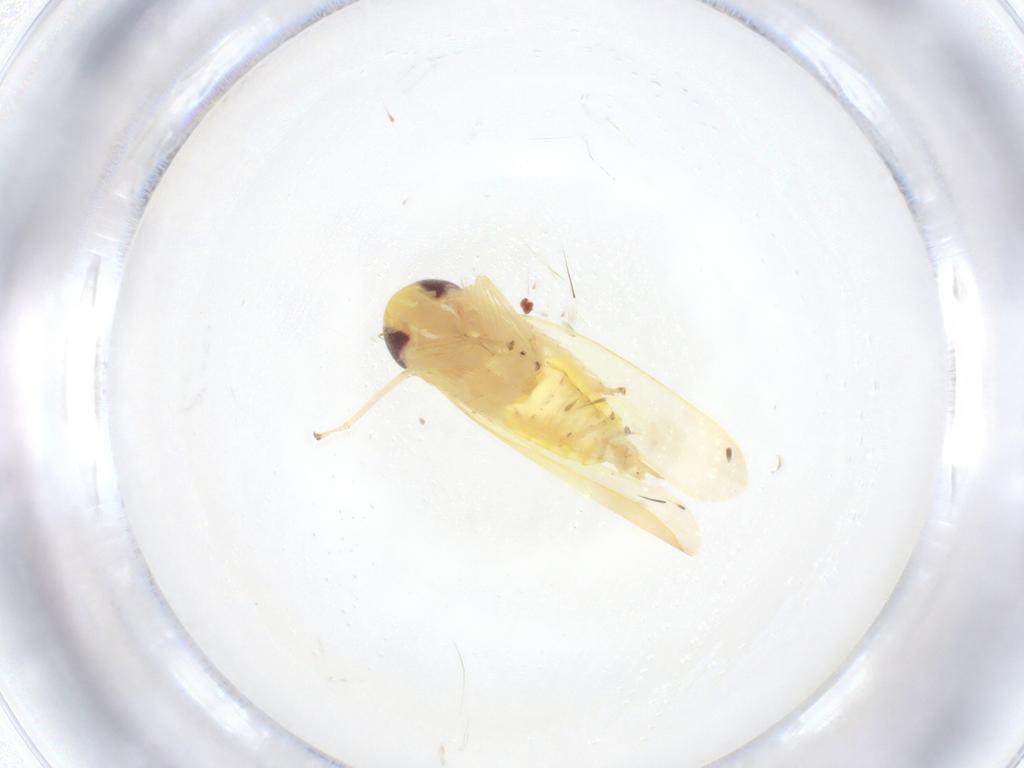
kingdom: Animalia
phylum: Arthropoda
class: Insecta
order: Hemiptera
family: Cicadellidae
